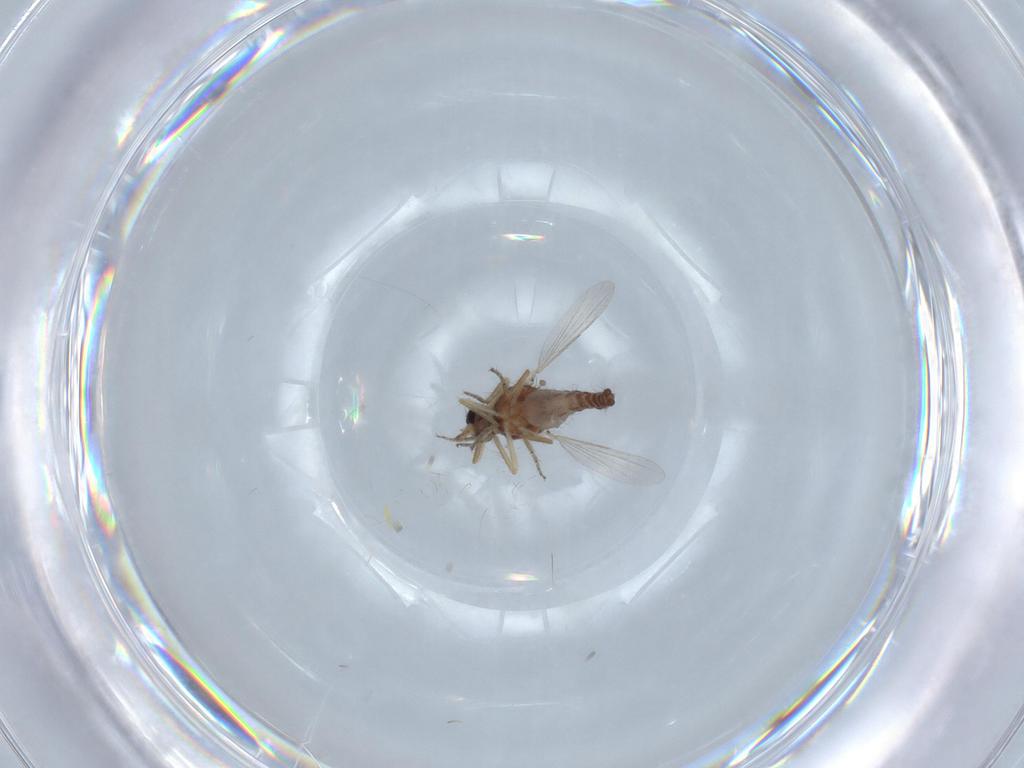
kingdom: Animalia
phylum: Arthropoda
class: Insecta
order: Diptera
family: Ceratopogonidae
